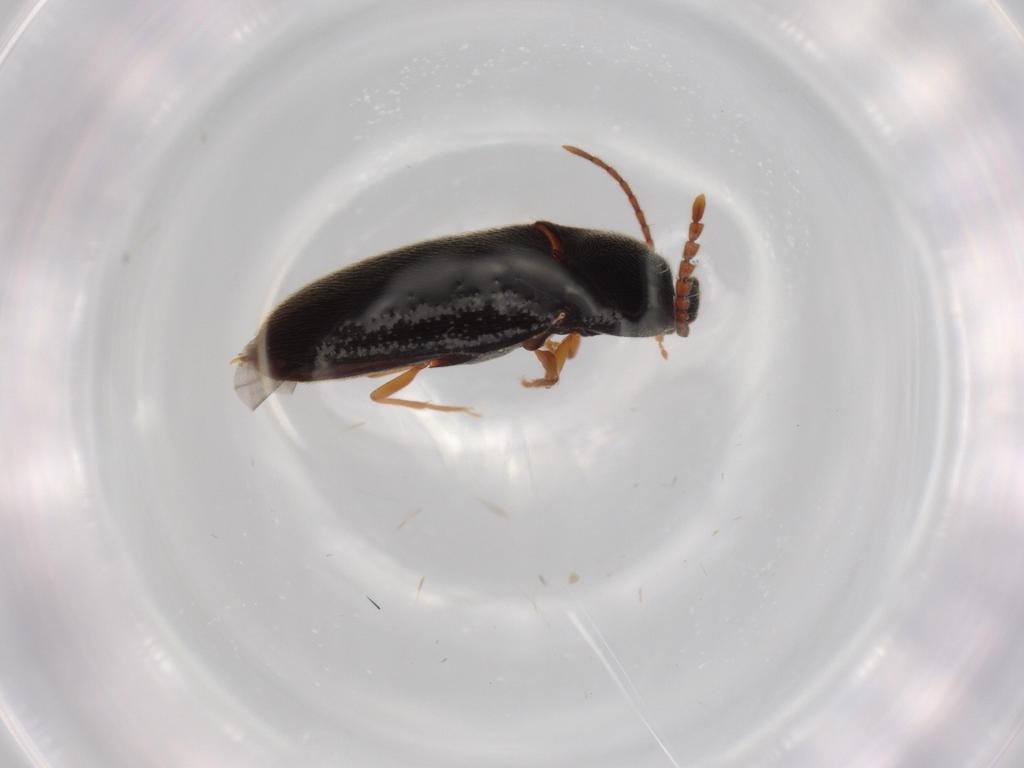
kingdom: Animalia
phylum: Arthropoda
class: Insecta
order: Coleoptera
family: Elateridae
